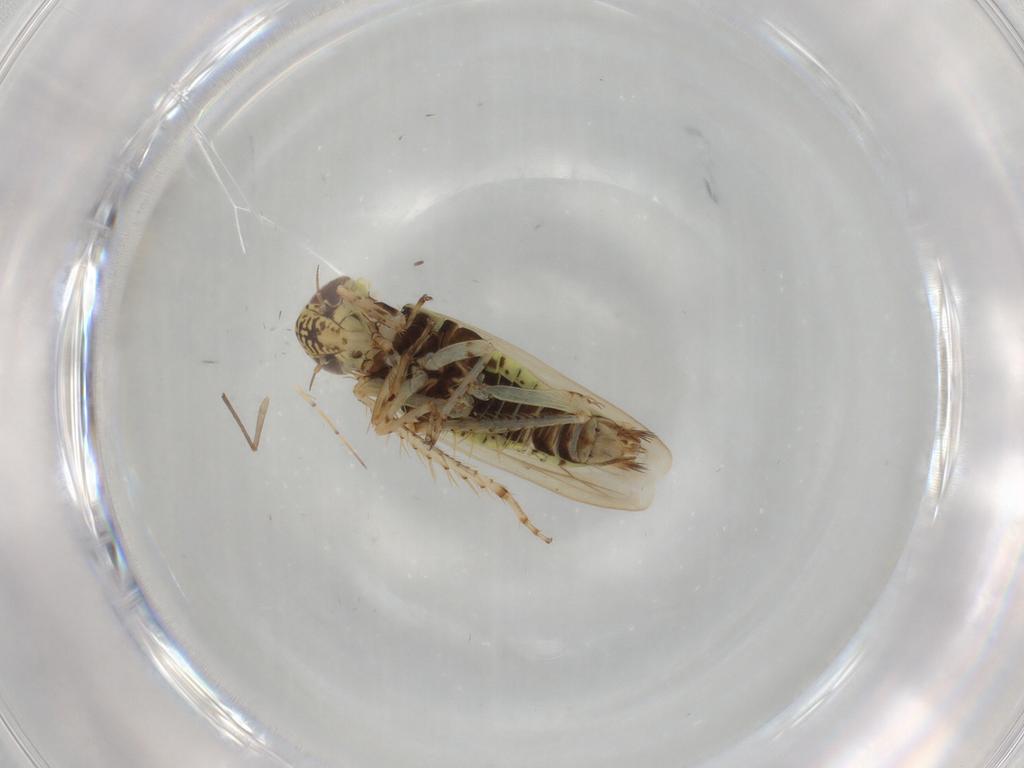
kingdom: Animalia
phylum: Arthropoda
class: Insecta
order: Hemiptera
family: Cicadellidae
